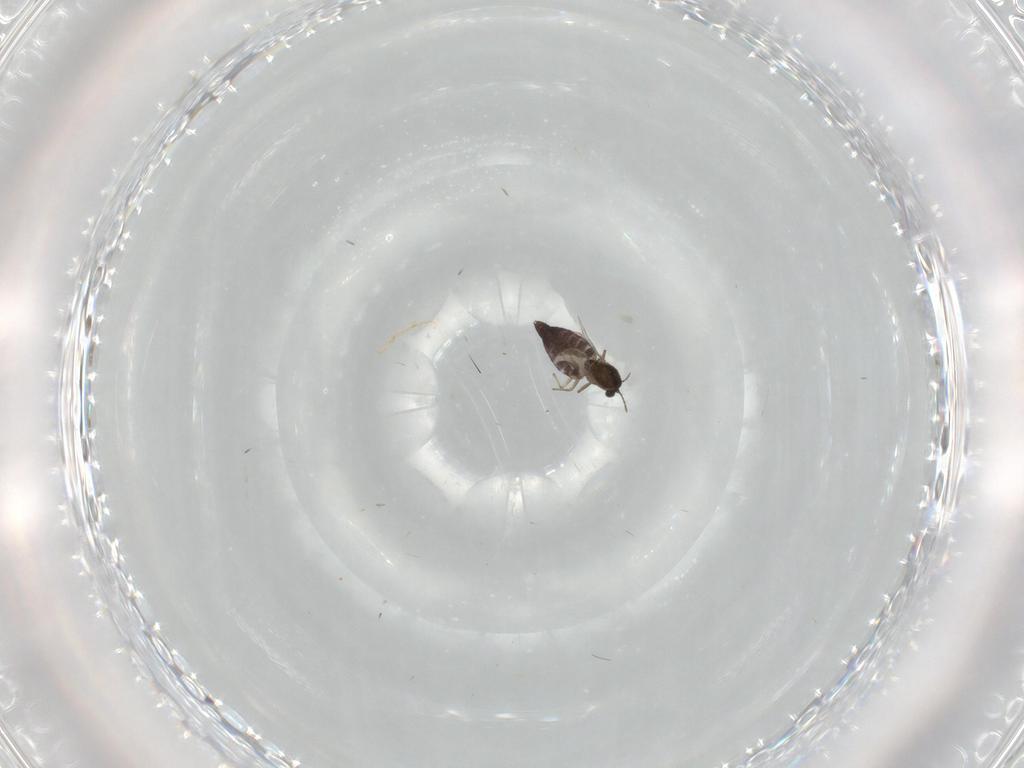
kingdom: Animalia
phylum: Arthropoda
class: Insecta
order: Diptera
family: Chironomidae
